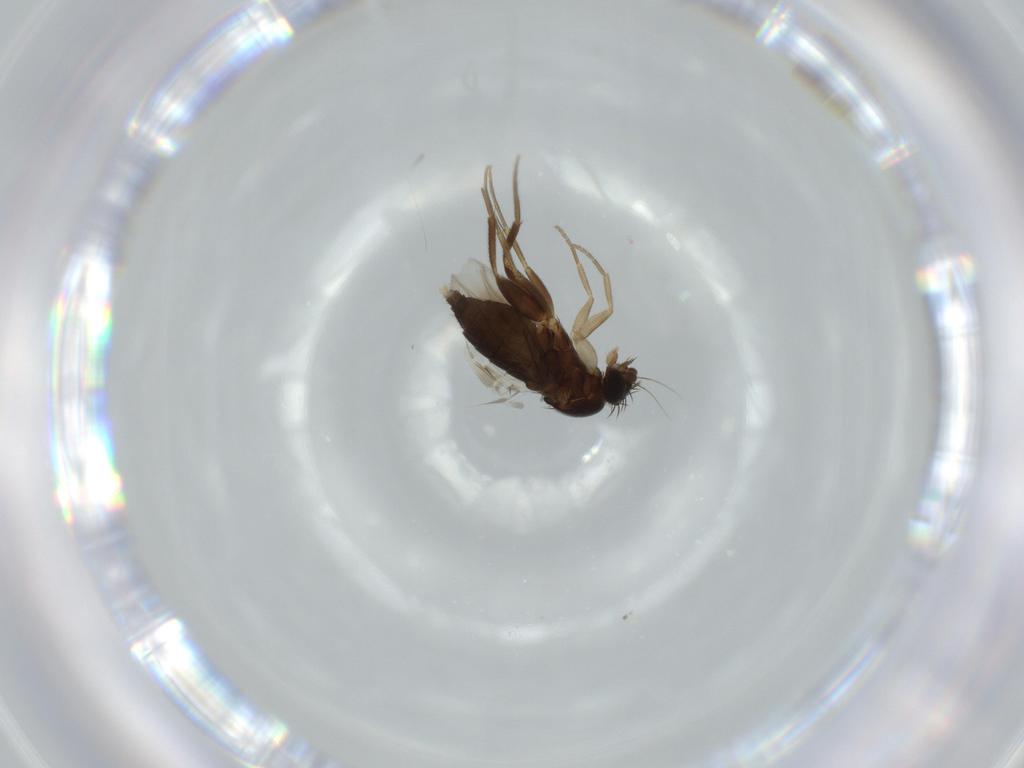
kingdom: Animalia
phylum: Arthropoda
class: Insecta
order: Diptera
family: Phoridae
